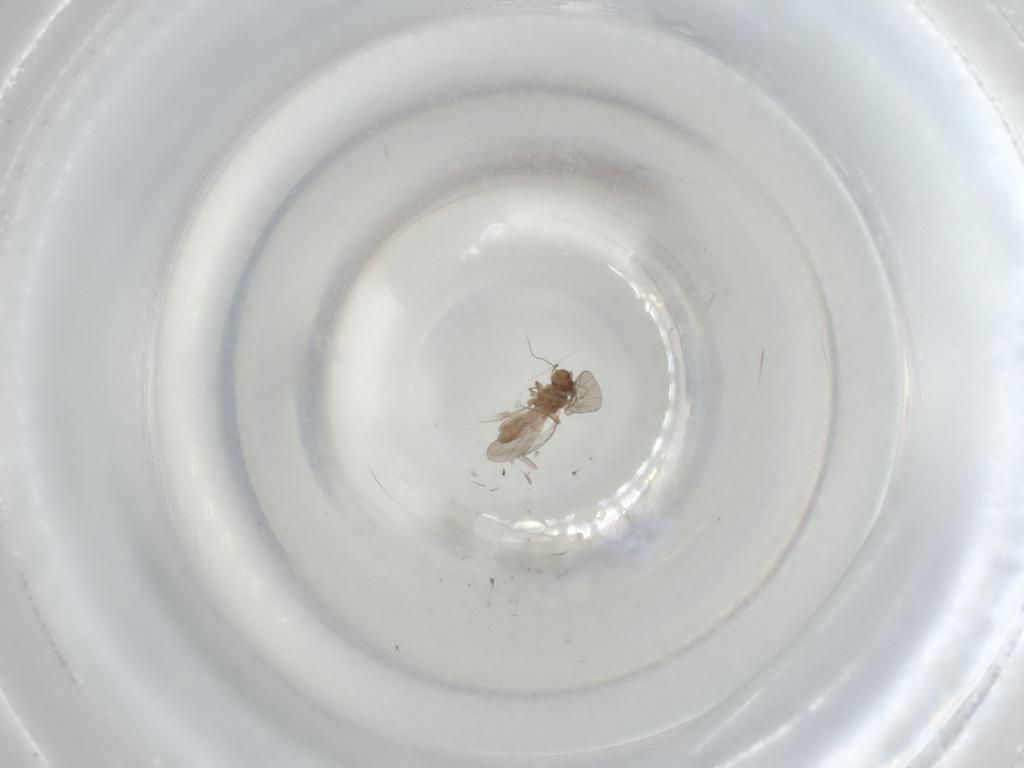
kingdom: Animalia
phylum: Arthropoda
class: Insecta
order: Psocodea
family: Lepidopsocidae
